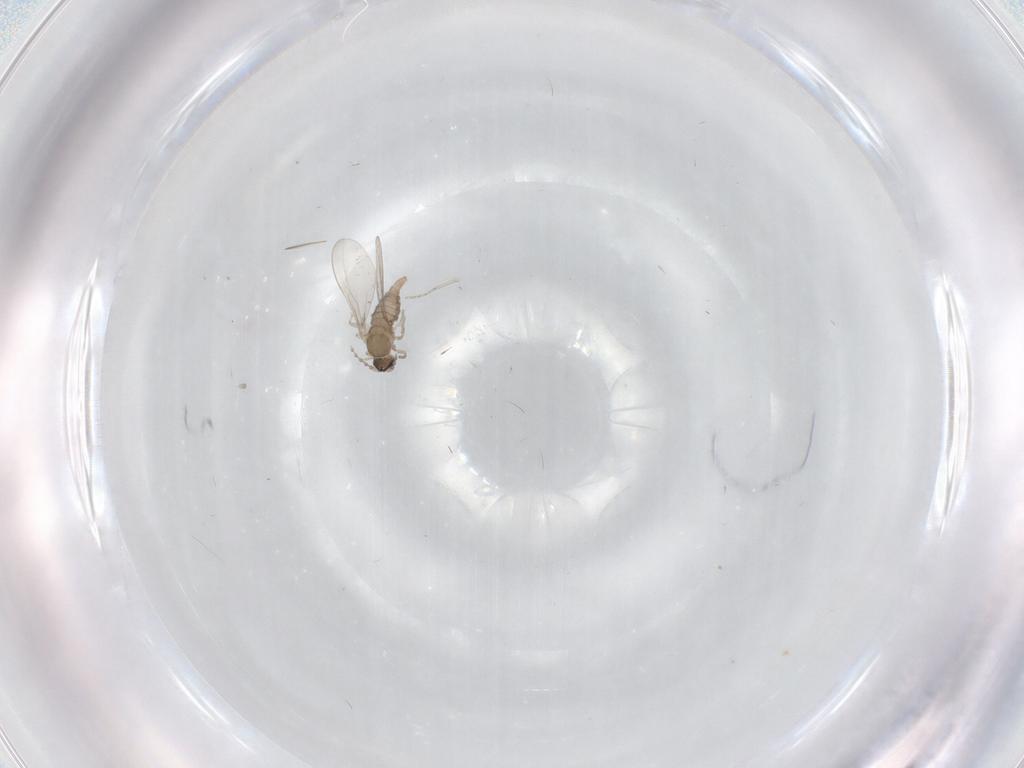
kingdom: Animalia
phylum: Arthropoda
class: Insecta
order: Diptera
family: Cecidomyiidae
